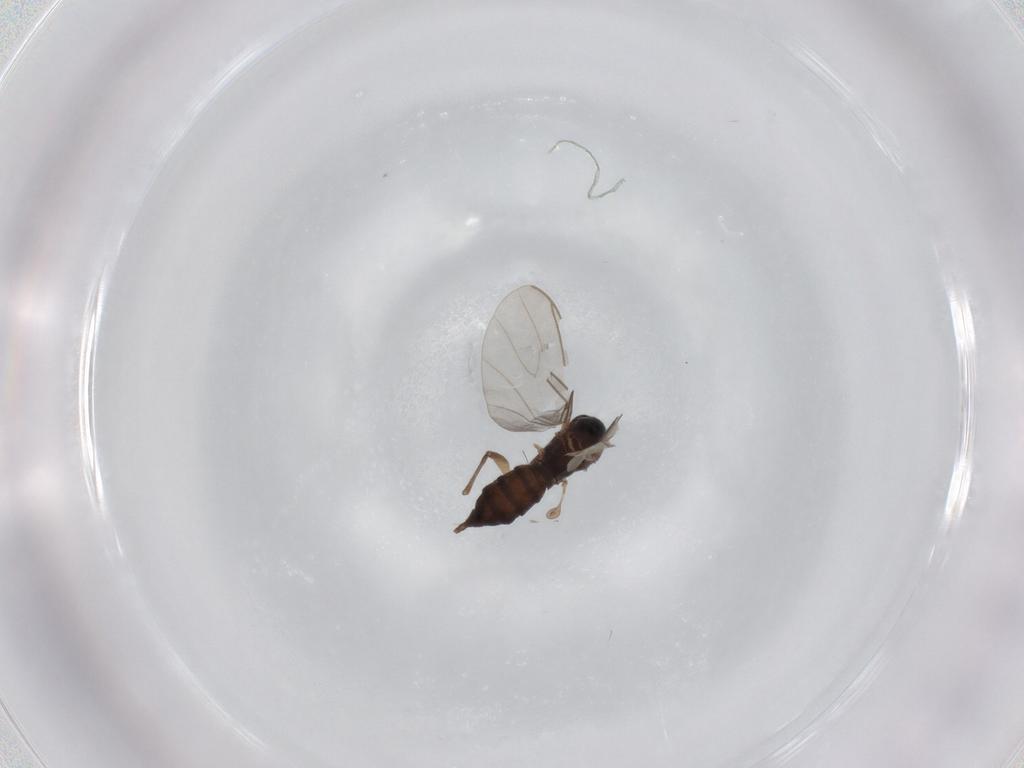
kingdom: Animalia
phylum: Arthropoda
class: Insecta
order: Diptera
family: Sciaridae
